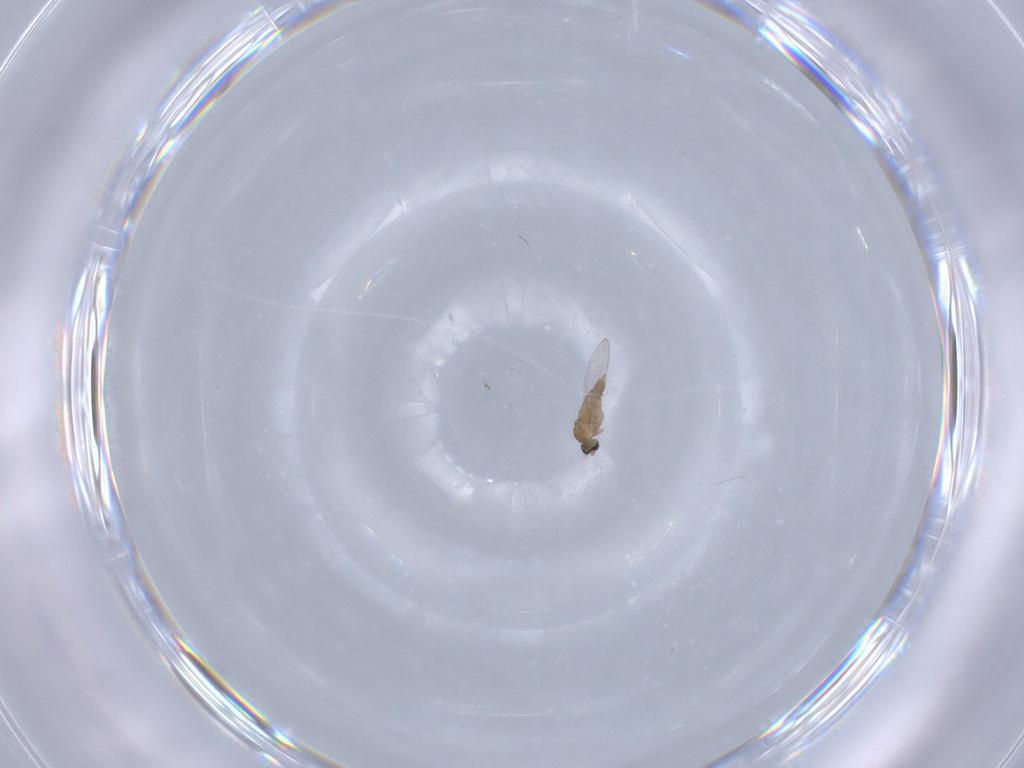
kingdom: Animalia
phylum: Arthropoda
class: Insecta
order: Diptera
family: Cecidomyiidae
